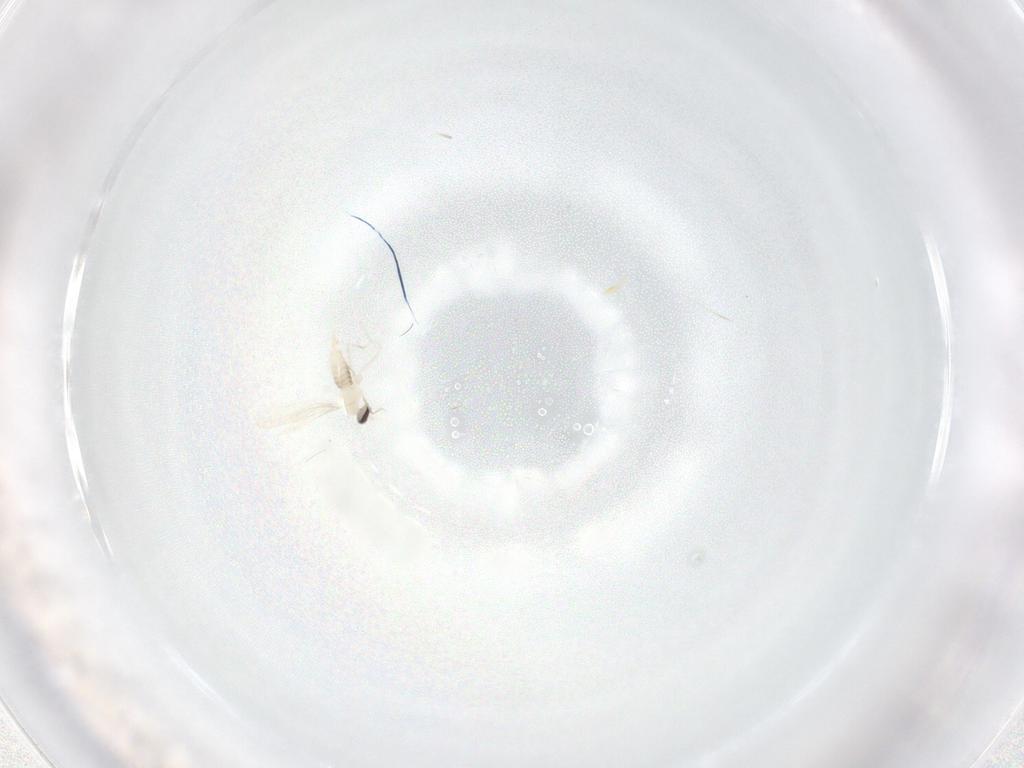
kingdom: Animalia
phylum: Arthropoda
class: Insecta
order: Diptera
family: Cecidomyiidae
